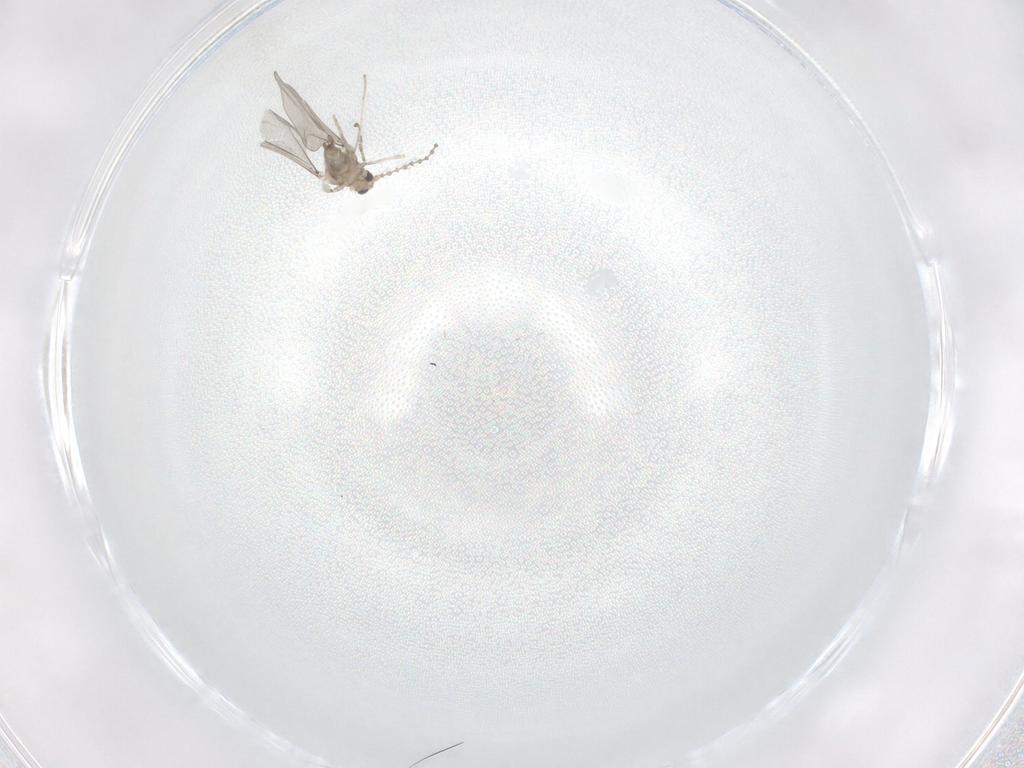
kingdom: Animalia
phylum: Arthropoda
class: Insecta
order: Diptera
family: Cecidomyiidae
